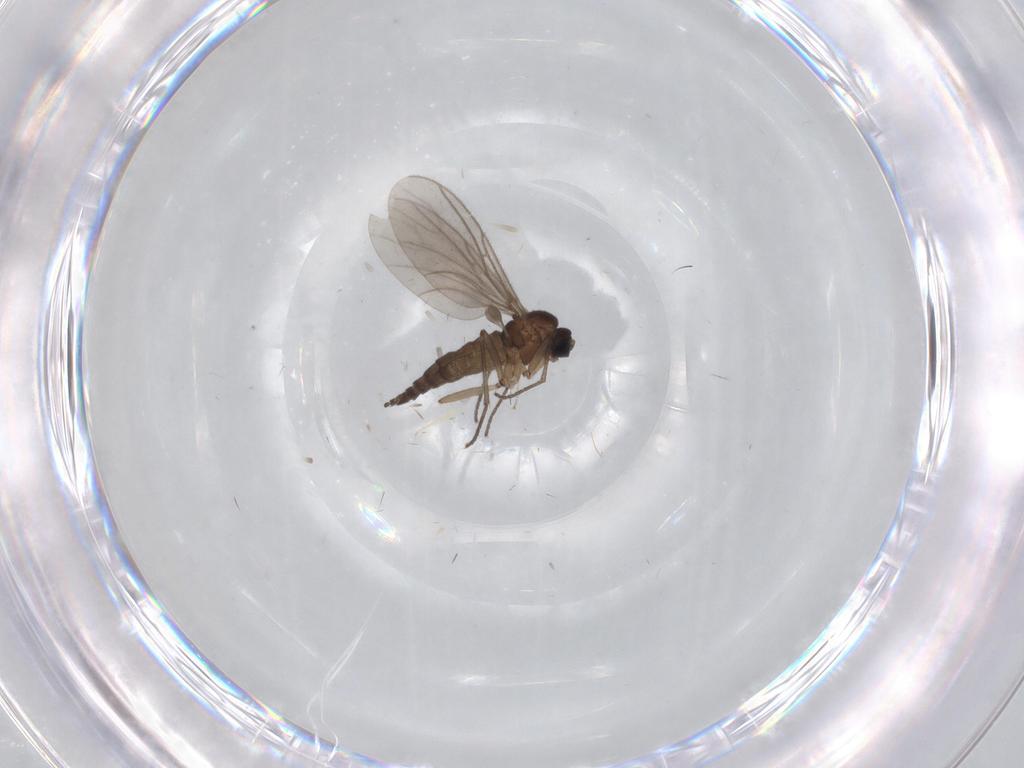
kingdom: Animalia
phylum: Arthropoda
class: Insecta
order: Diptera
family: Sciaridae
